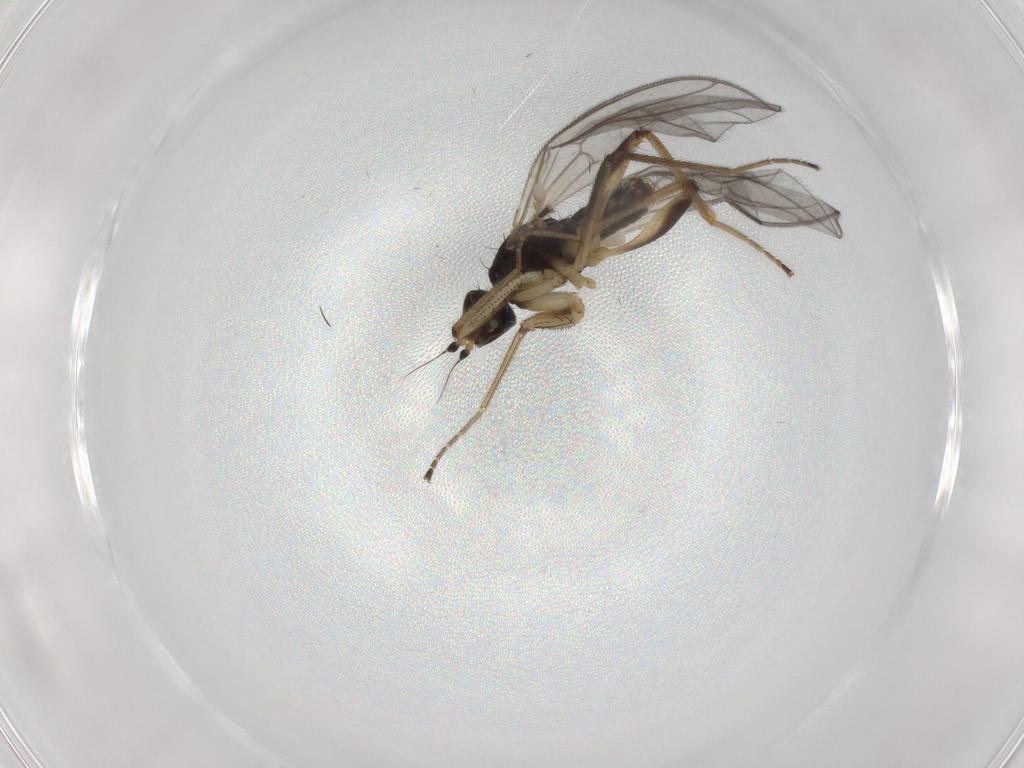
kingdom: Animalia
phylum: Arthropoda
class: Insecta
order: Diptera
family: Empididae
